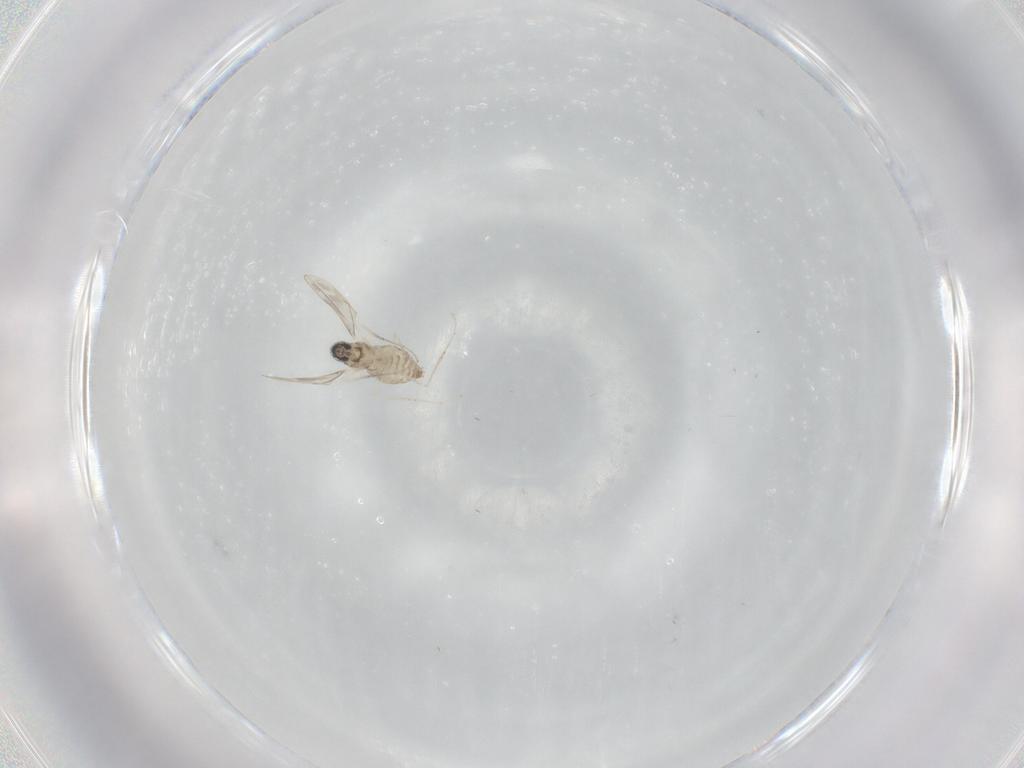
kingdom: Animalia
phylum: Arthropoda
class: Insecta
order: Diptera
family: Cecidomyiidae
